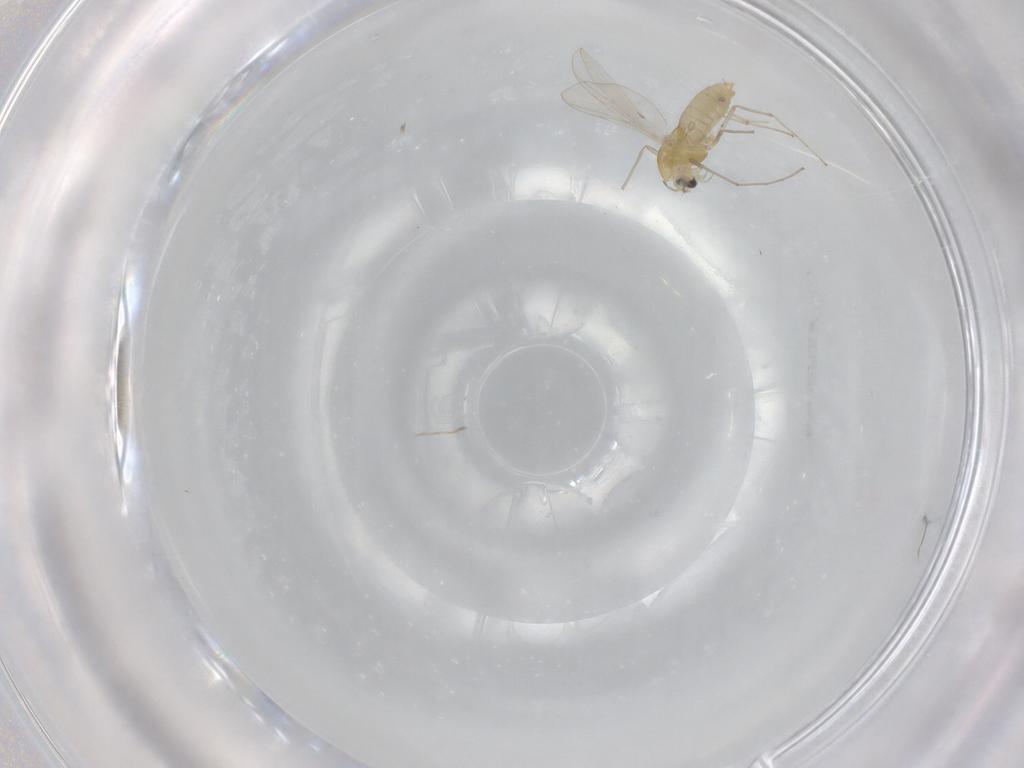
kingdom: Animalia
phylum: Arthropoda
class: Insecta
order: Diptera
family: Chironomidae
